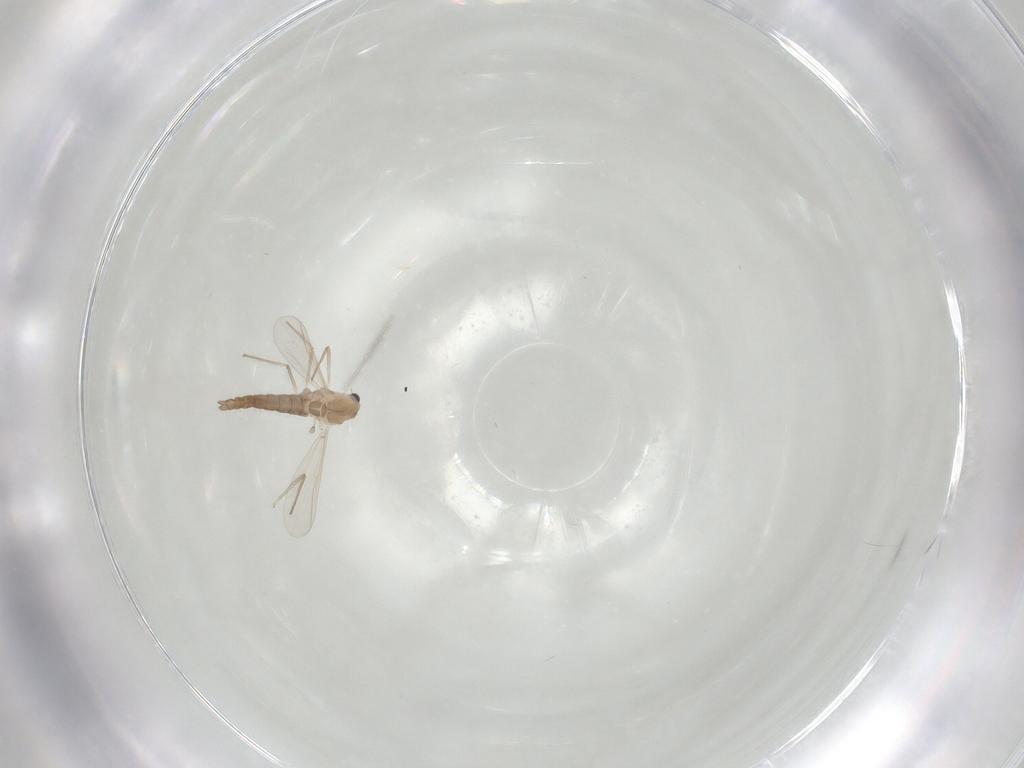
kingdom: Animalia
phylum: Arthropoda
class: Insecta
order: Diptera
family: Chironomidae
